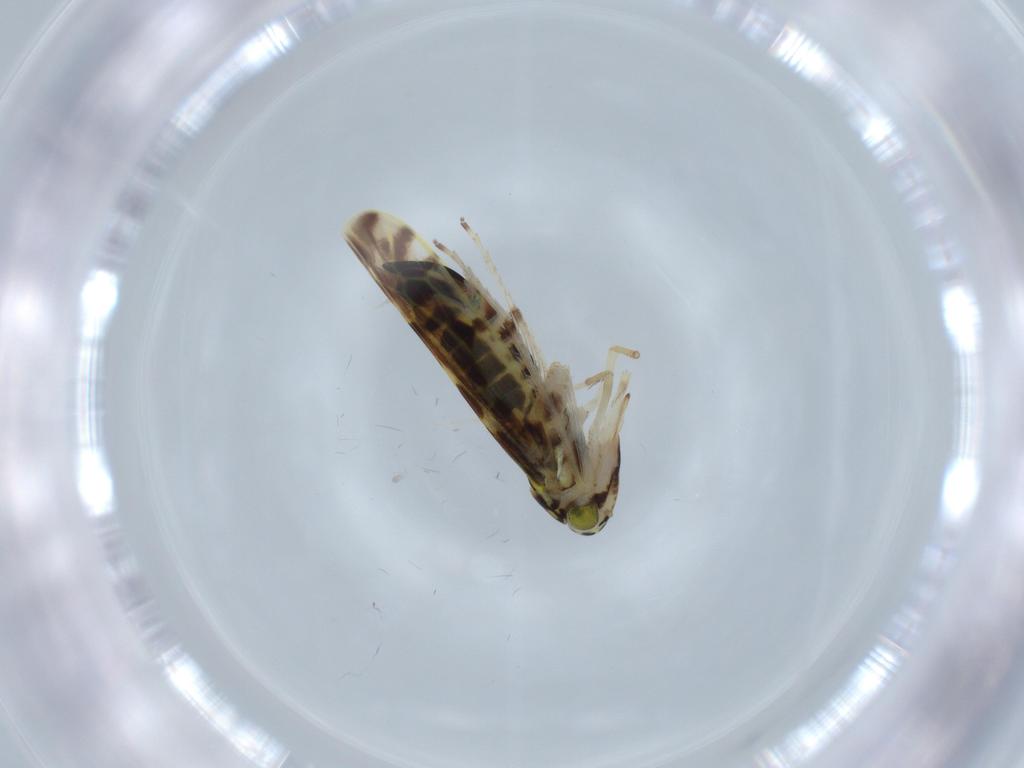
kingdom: Animalia
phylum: Arthropoda
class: Insecta
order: Hemiptera
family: Cicadellidae
